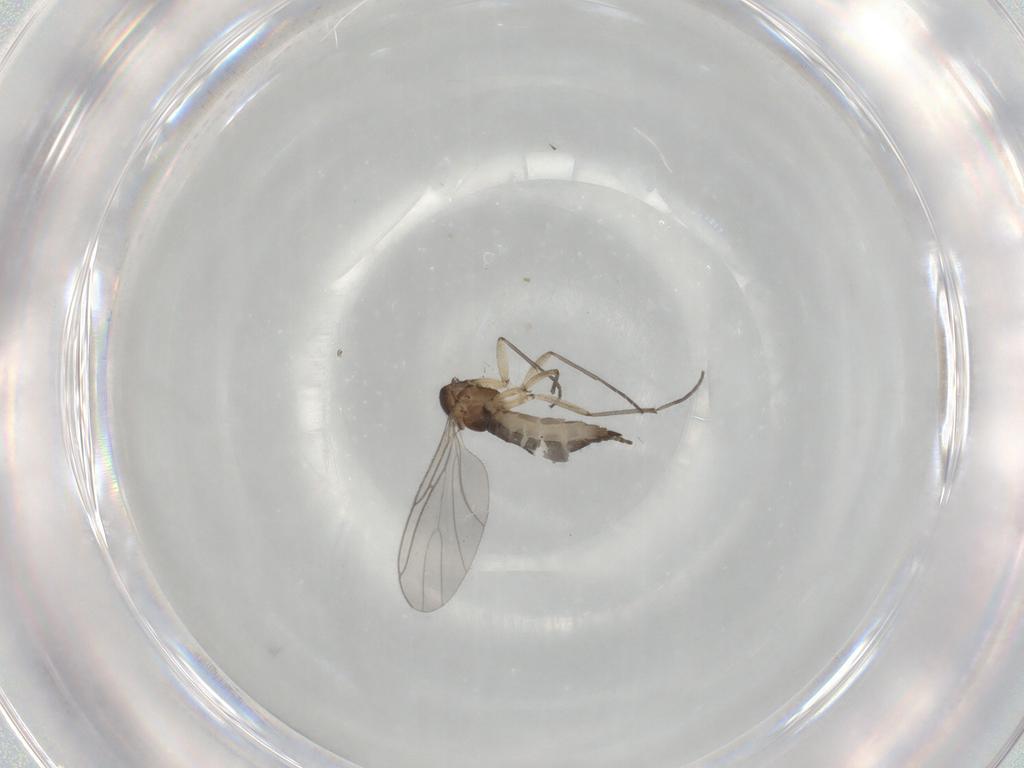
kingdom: Animalia
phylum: Arthropoda
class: Insecta
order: Diptera
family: Sciaridae
